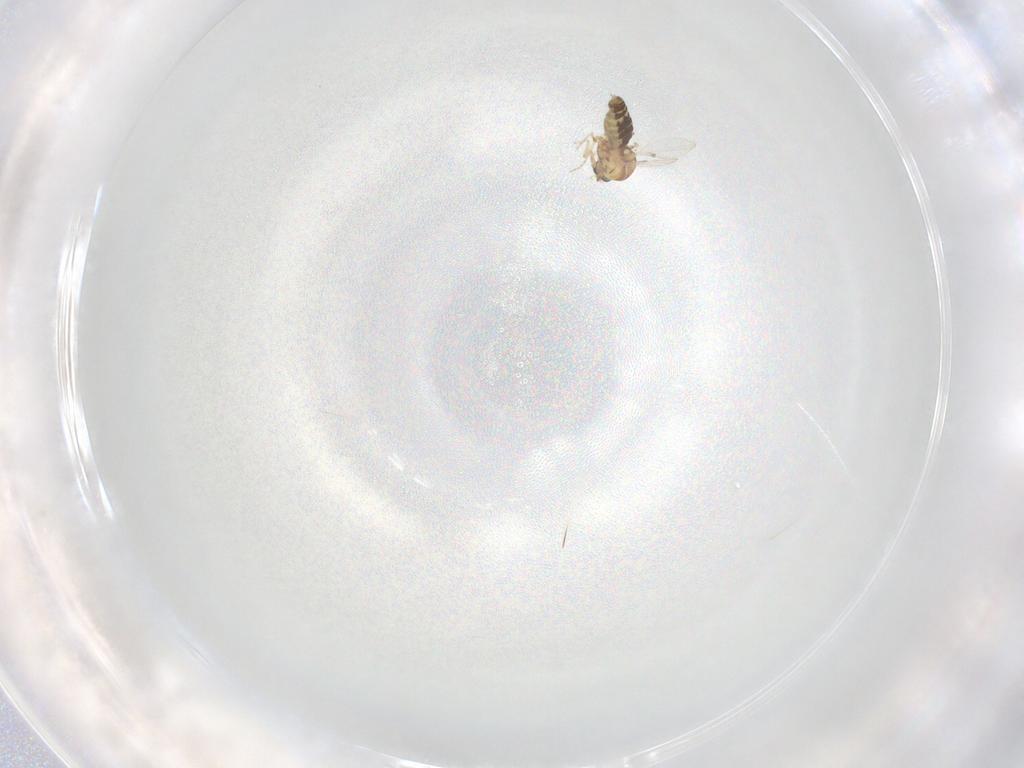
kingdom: Animalia
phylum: Arthropoda
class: Insecta
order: Diptera
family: Ceratopogonidae
